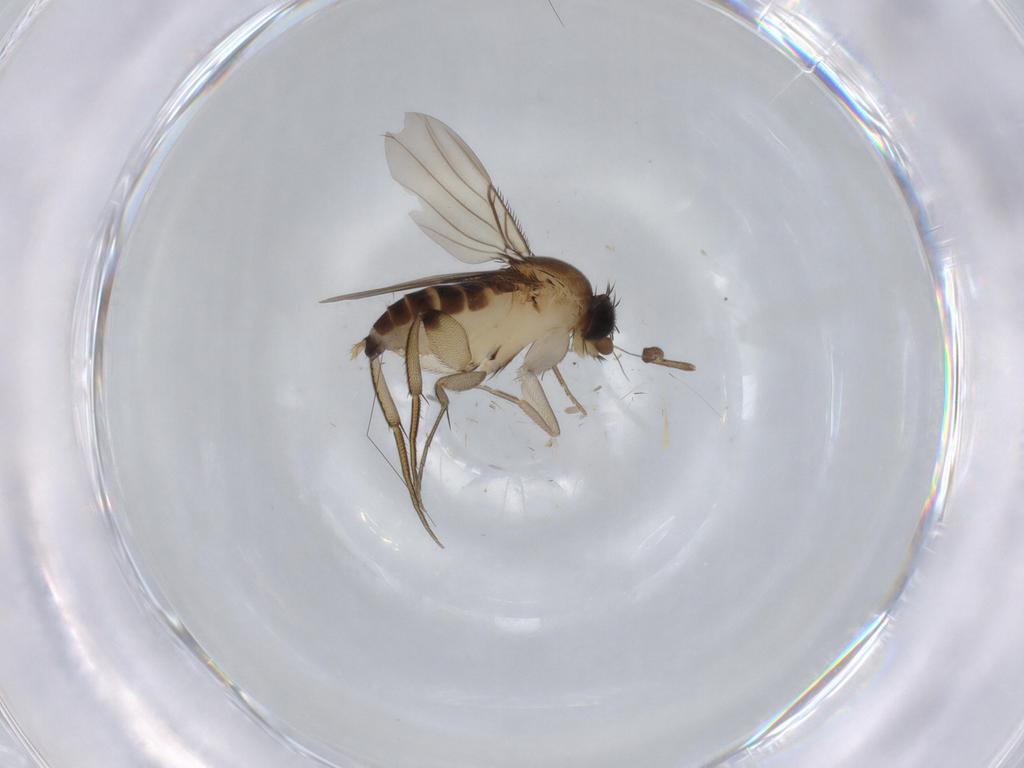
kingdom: Animalia
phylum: Arthropoda
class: Insecta
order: Diptera
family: Phoridae
